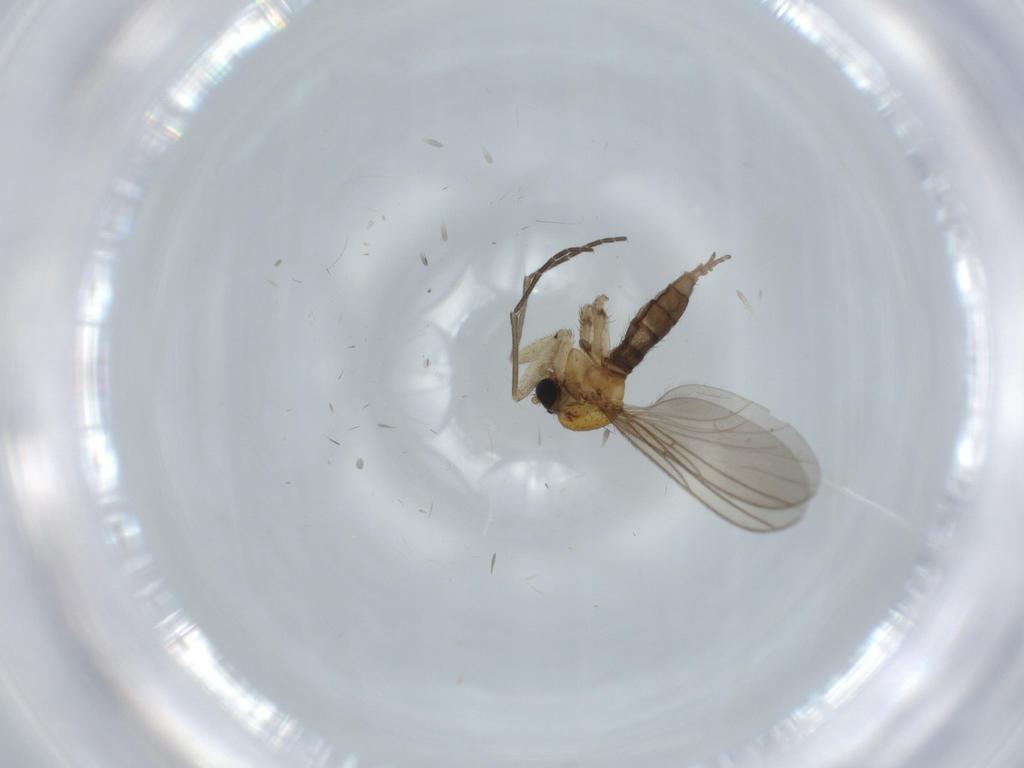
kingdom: Animalia
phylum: Arthropoda
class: Insecta
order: Diptera
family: Sciaridae
